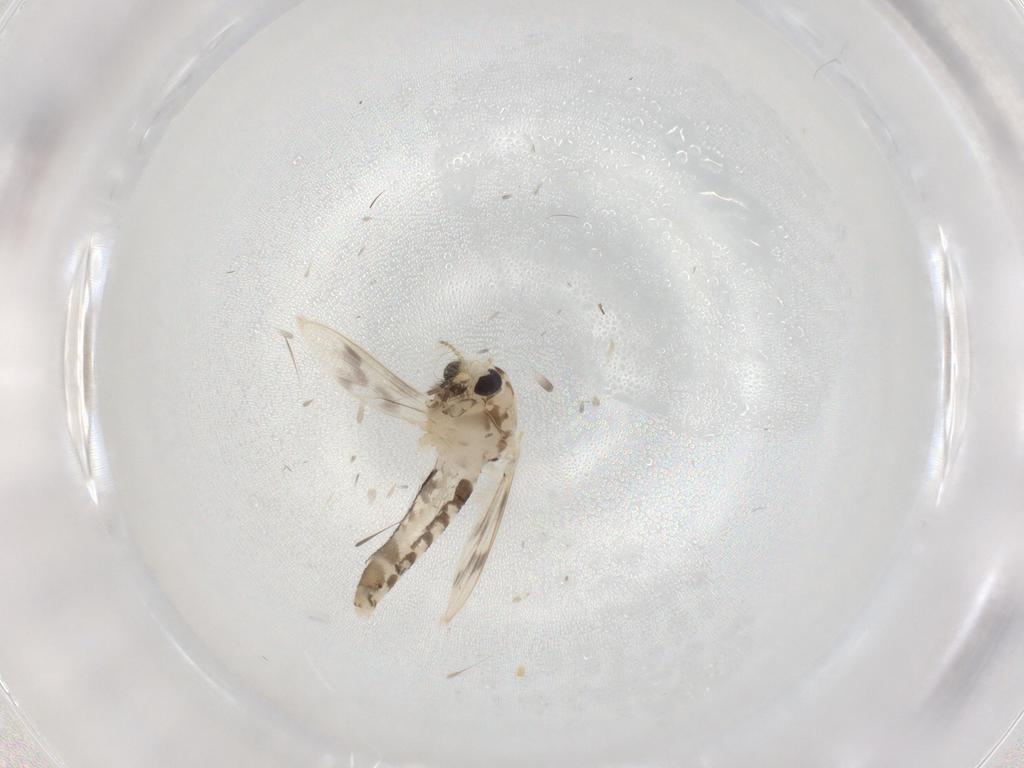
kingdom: Animalia
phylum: Arthropoda
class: Insecta
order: Diptera
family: Corethrellidae
